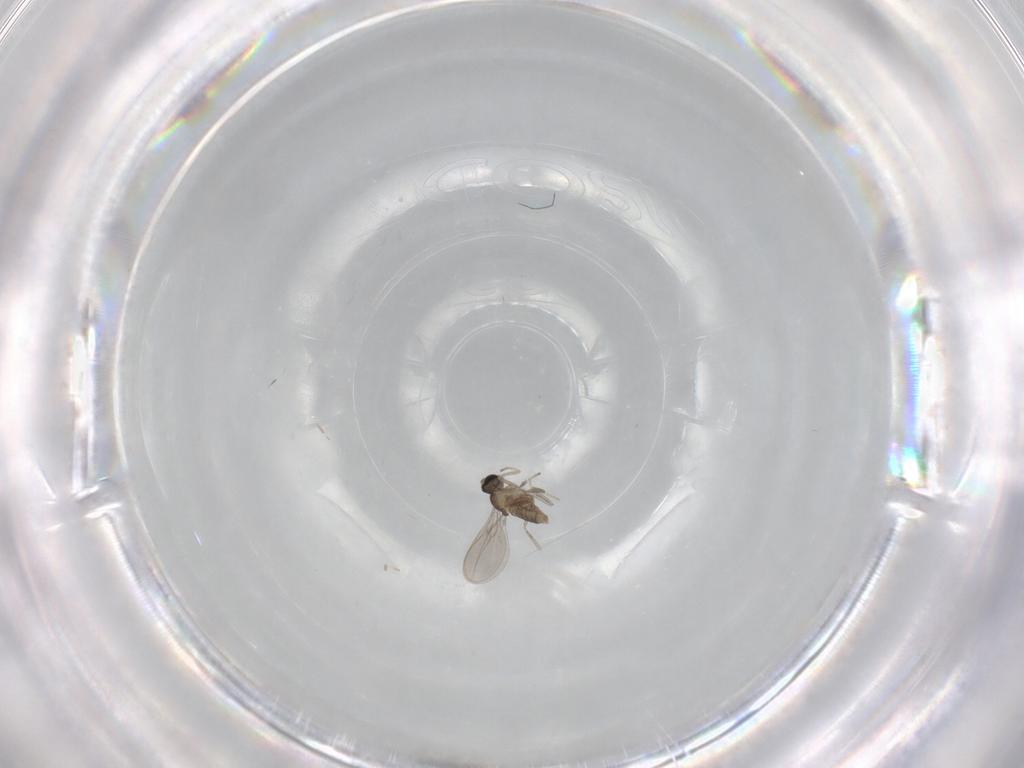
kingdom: Animalia
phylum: Arthropoda
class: Insecta
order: Diptera
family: Cecidomyiidae
